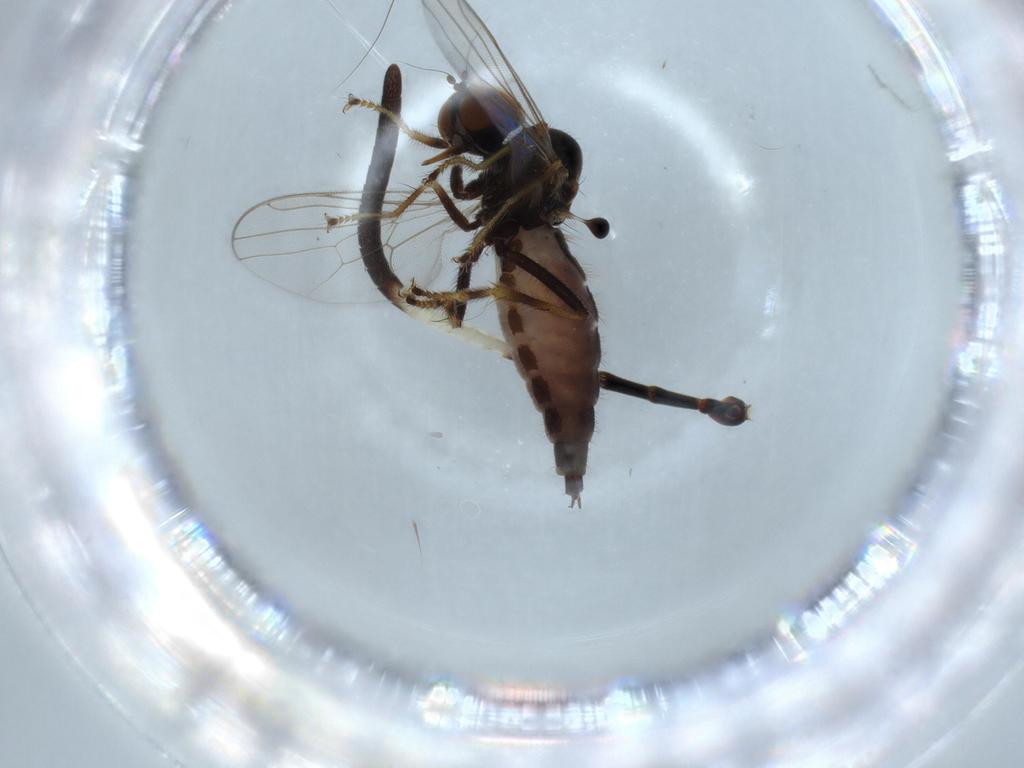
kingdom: Animalia
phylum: Arthropoda
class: Insecta
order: Diptera
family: Hybotidae
